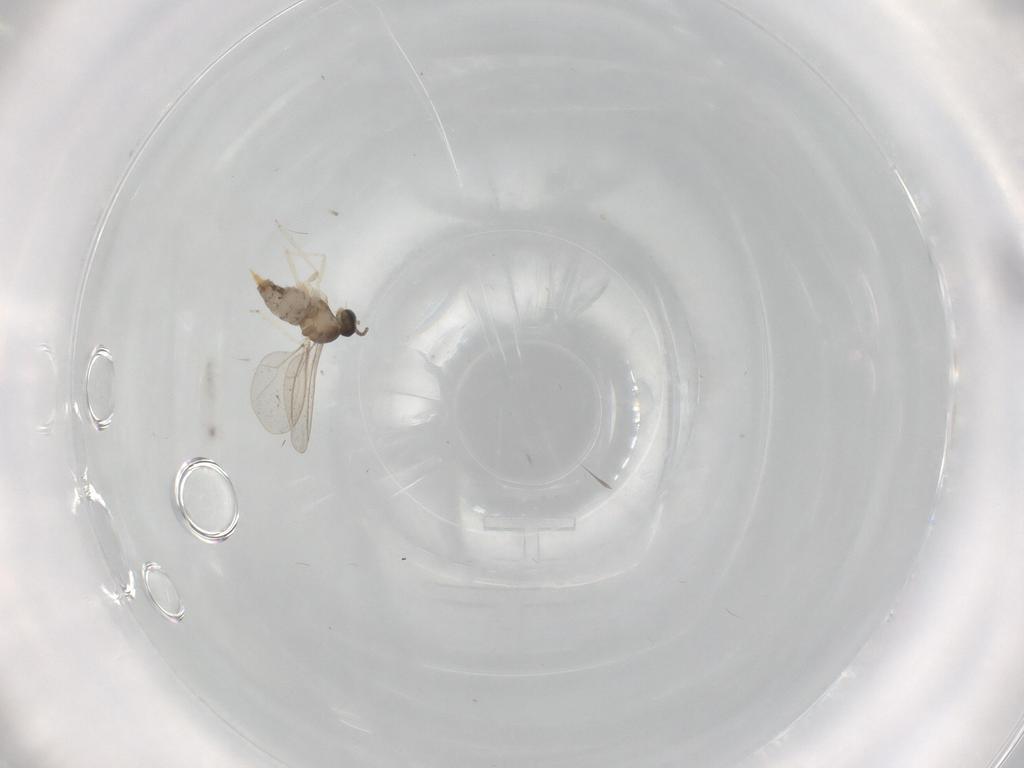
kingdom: Animalia
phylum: Arthropoda
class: Insecta
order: Diptera
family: Cecidomyiidae
